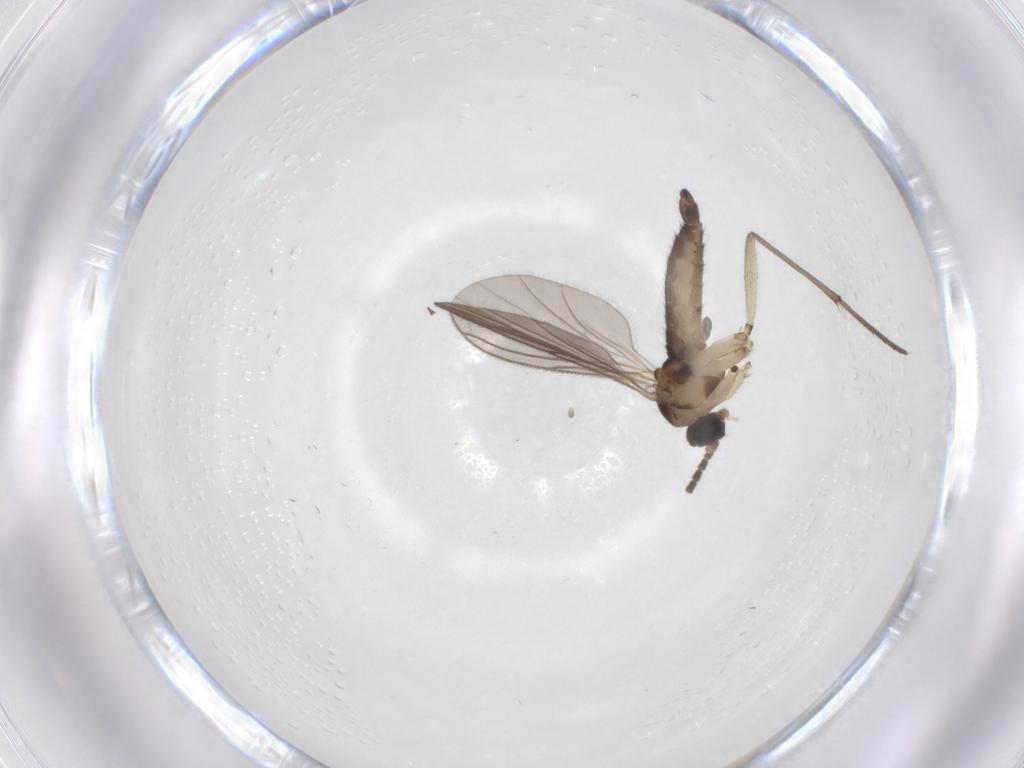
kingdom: Animalia
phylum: Arthropoda
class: Insecta
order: Diptera
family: Sciaridae
